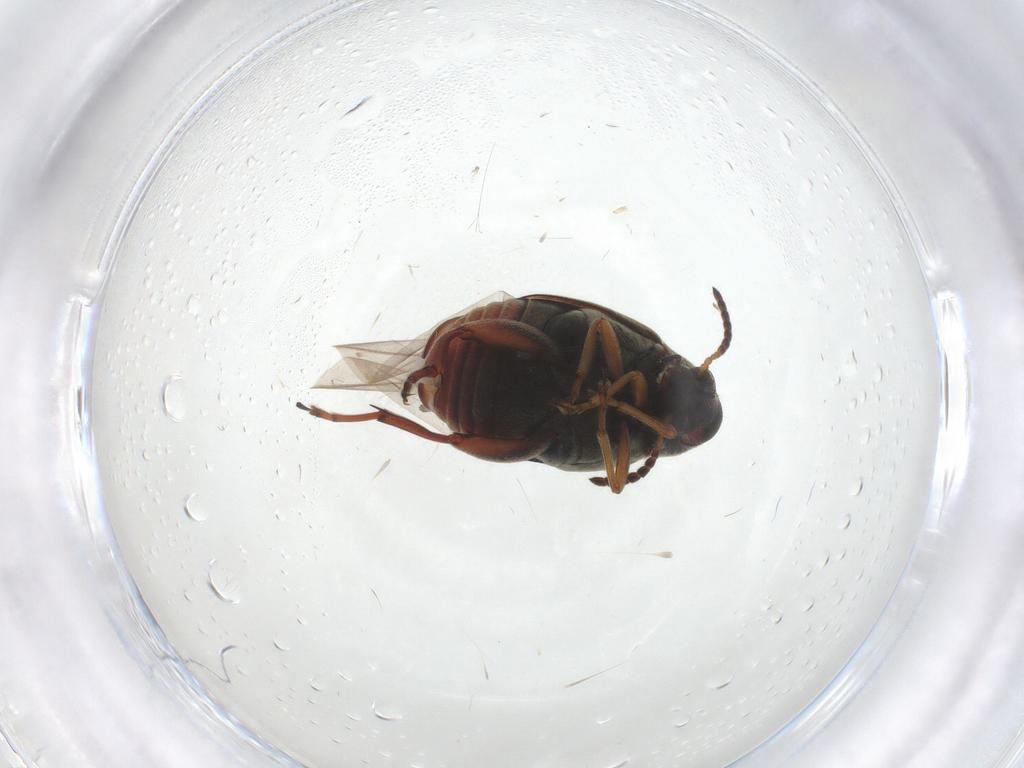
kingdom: Animalia
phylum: Arthropoda
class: Insecta
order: Coleoptera
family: Chrysomelidae
